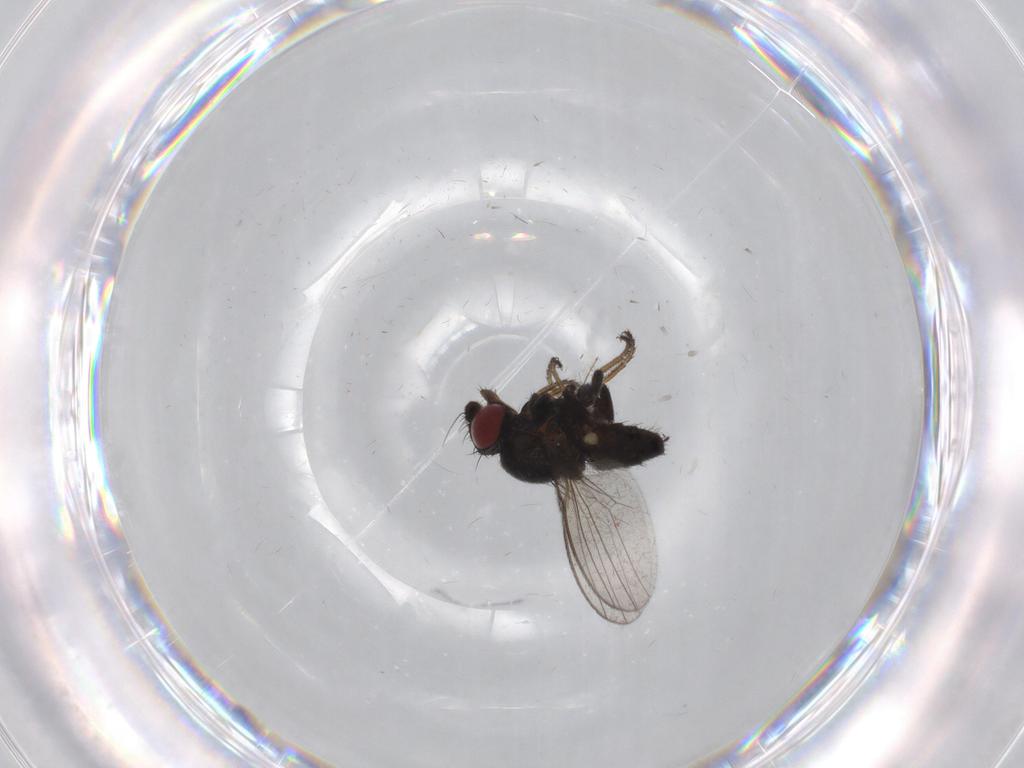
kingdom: Animalia
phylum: Arthropoda
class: Insecta
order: Diptera
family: Milichiidae
